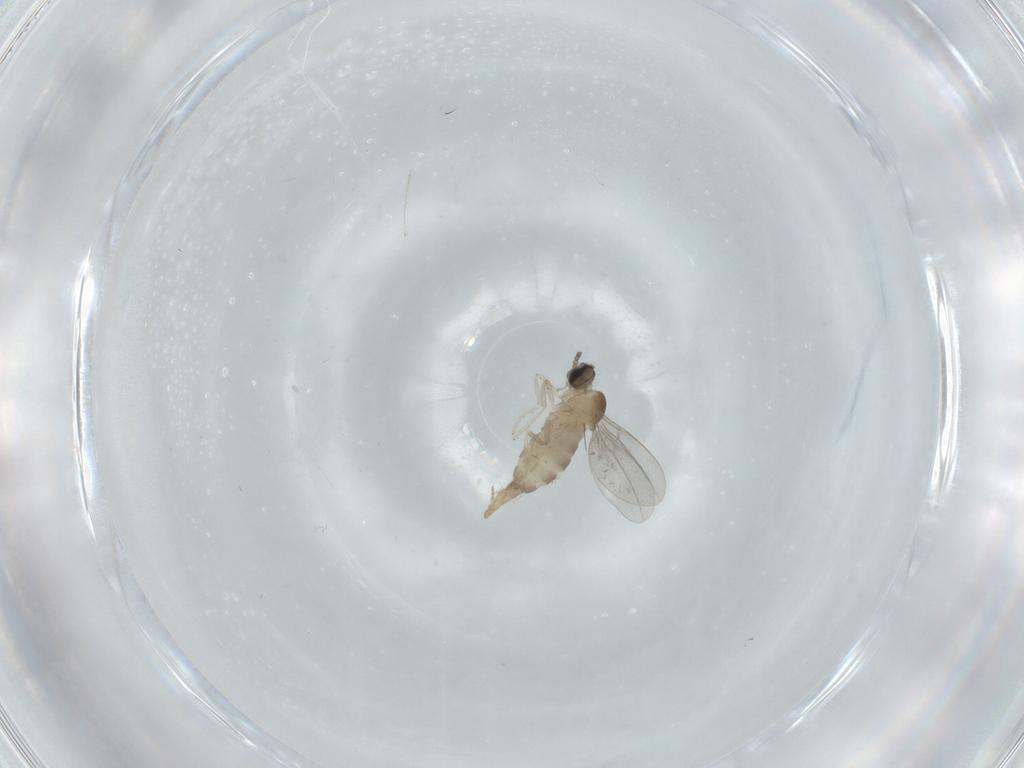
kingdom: Animalia
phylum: Arthropoda
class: Insecta
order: Diptera
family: Cecidomyiidae
